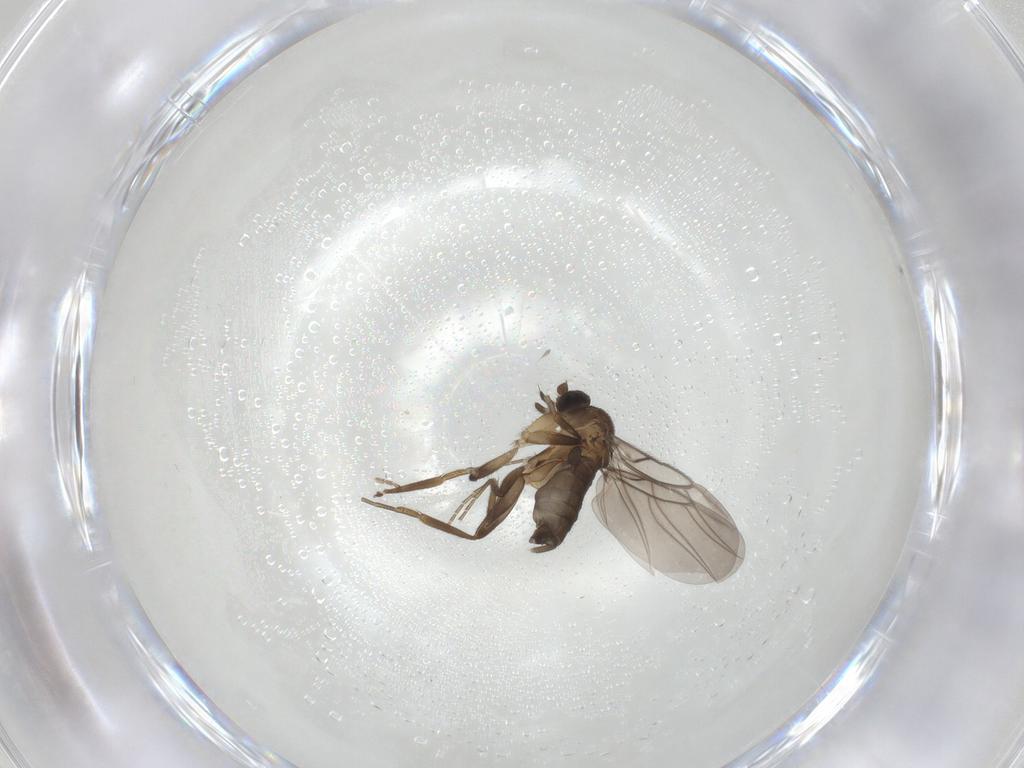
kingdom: Animalia
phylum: Arthropoda
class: Insecta
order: Diptera
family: Phoridae
